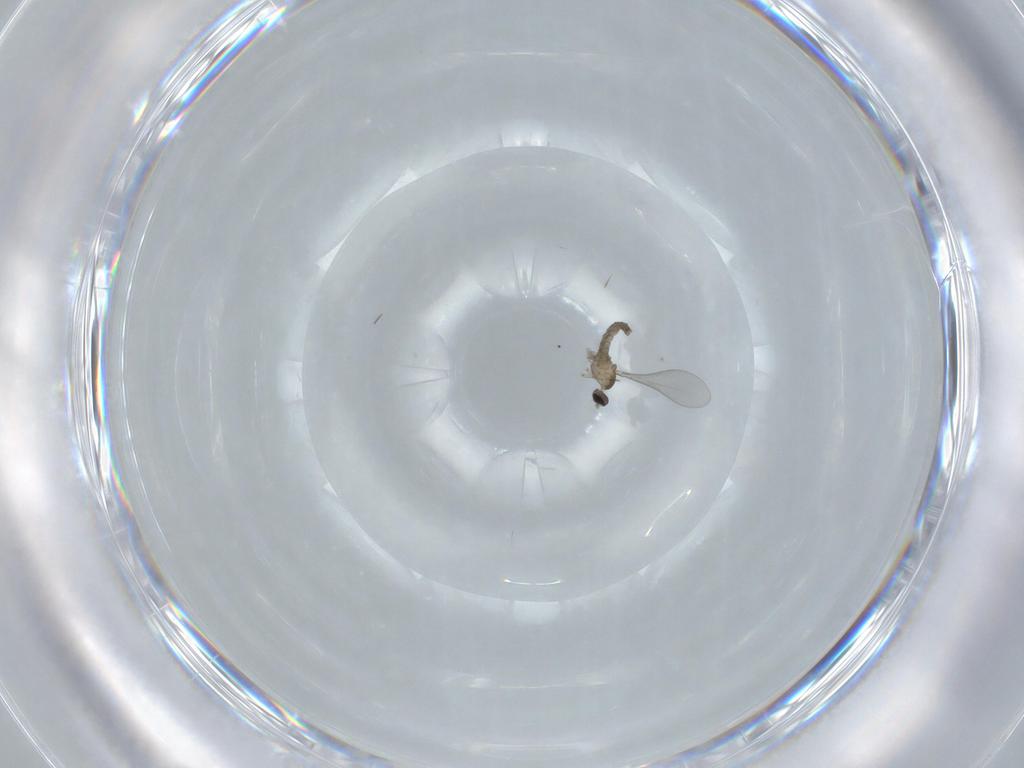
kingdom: Animalia
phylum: Arthropoda
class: Insecta
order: Diptera
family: Cecidomyiidae
